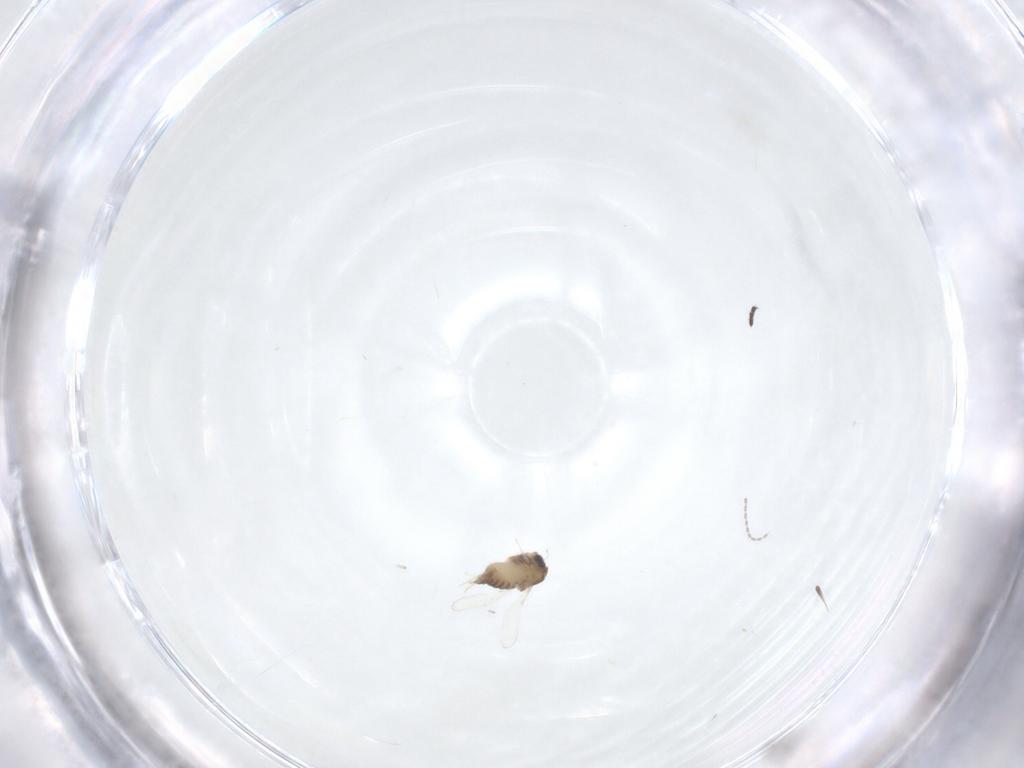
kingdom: Animalia
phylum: Arthropoda
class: Insecta
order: Diptera
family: Chironomidae
